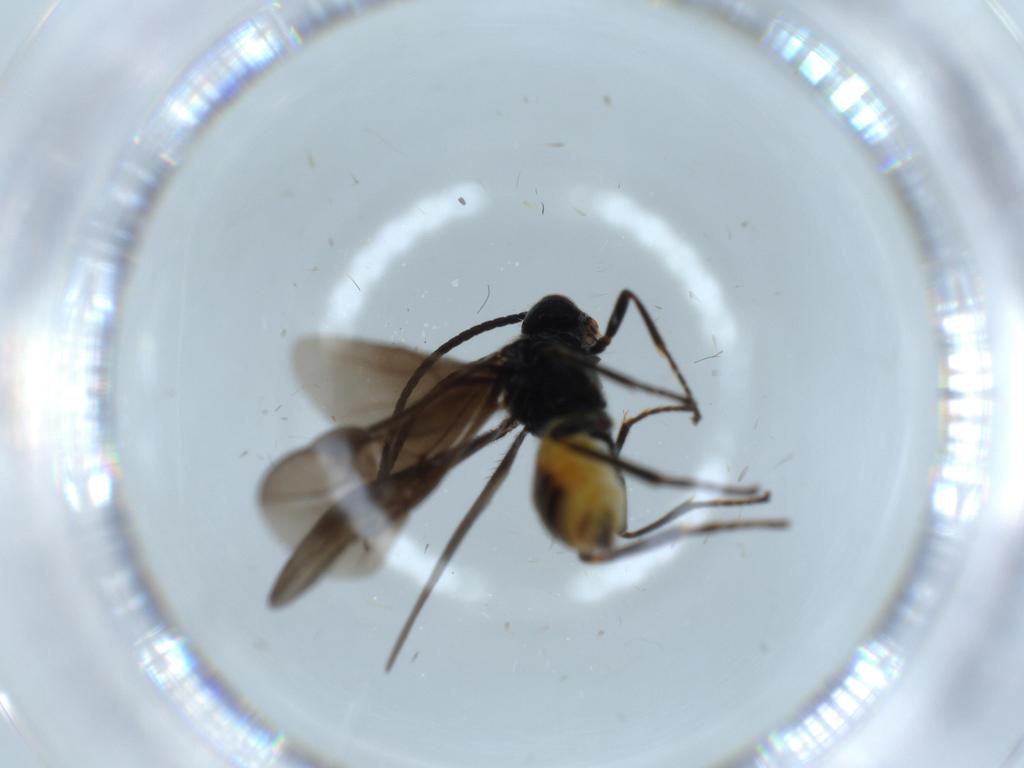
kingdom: Animalia
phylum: Arthropoda
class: Insecta
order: Hymenoptera
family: Braconidae
